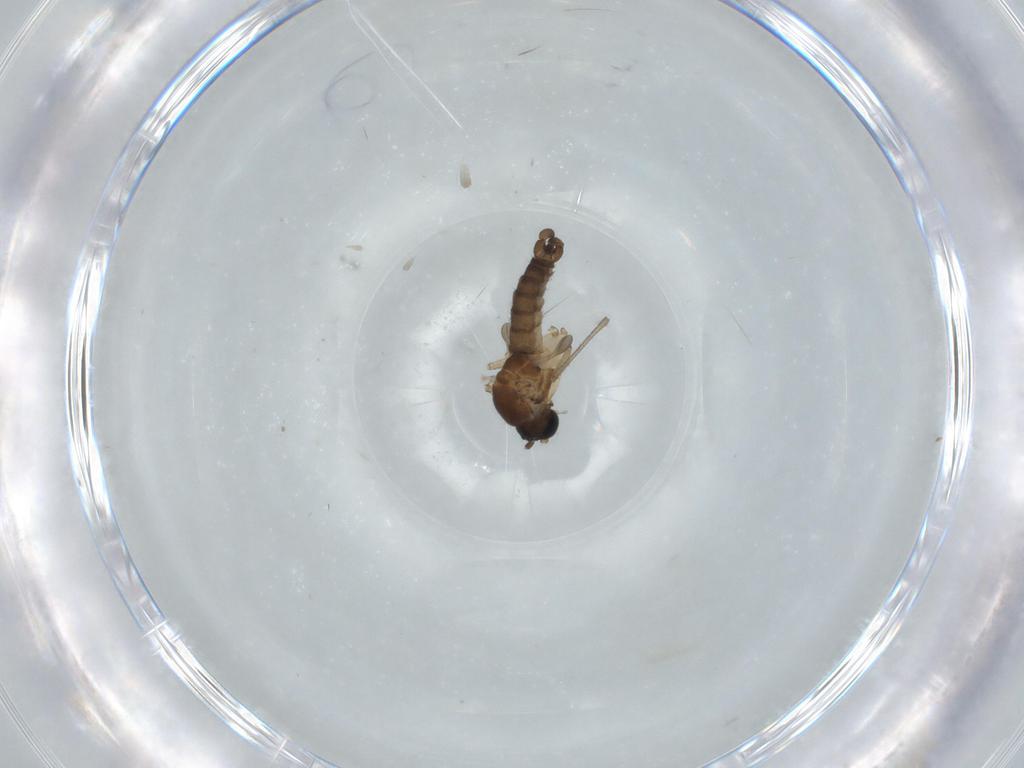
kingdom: Animalia
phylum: Arthropoda
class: Insecta
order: Diptera
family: Sciaridae
